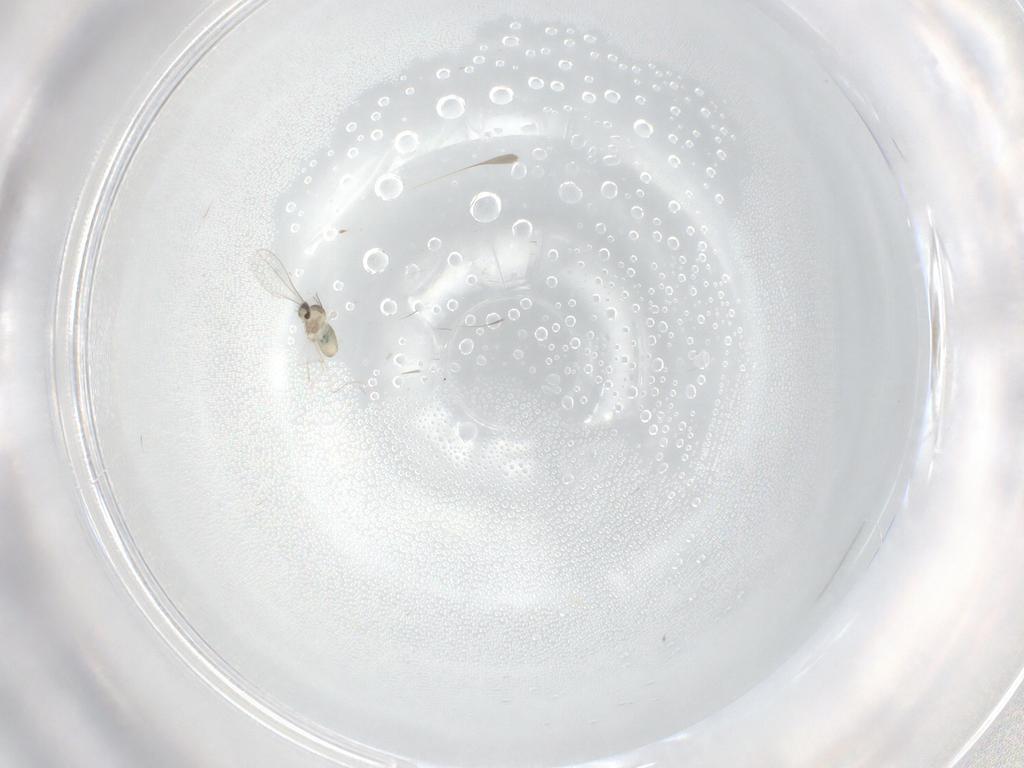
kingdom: Animalia
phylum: Arthropoda
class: Insecta
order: Diptera
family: Cecidomyiidae
